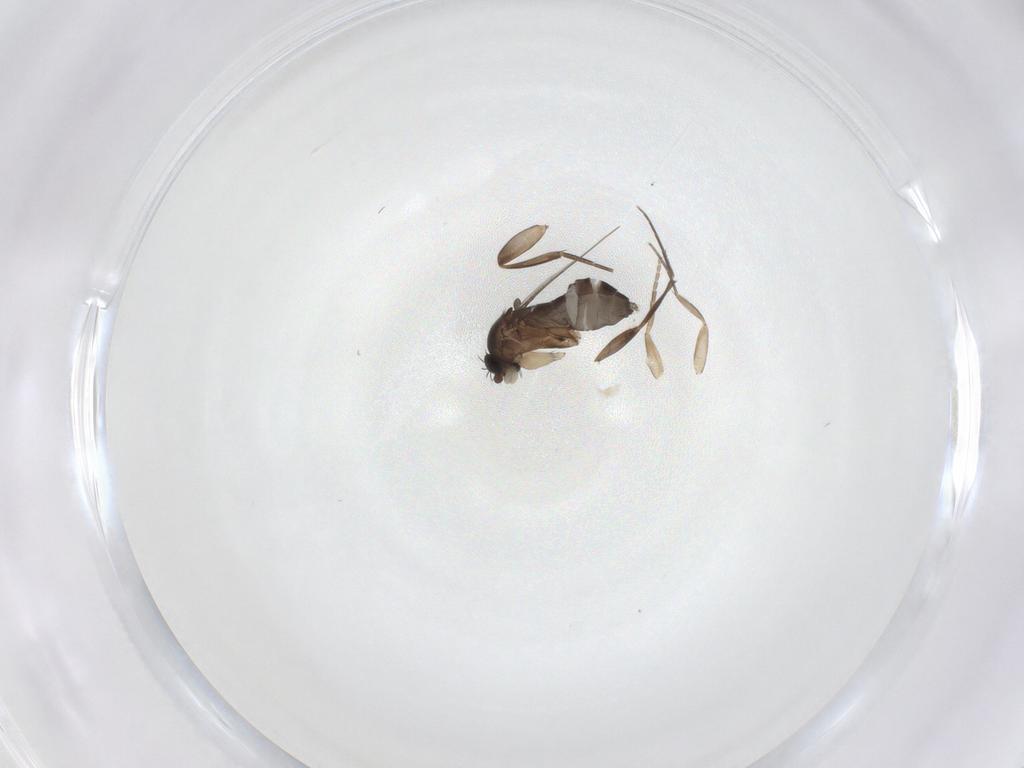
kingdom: Animalia
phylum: Arthropoda
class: Insecta
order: Diptera
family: Phoridae
